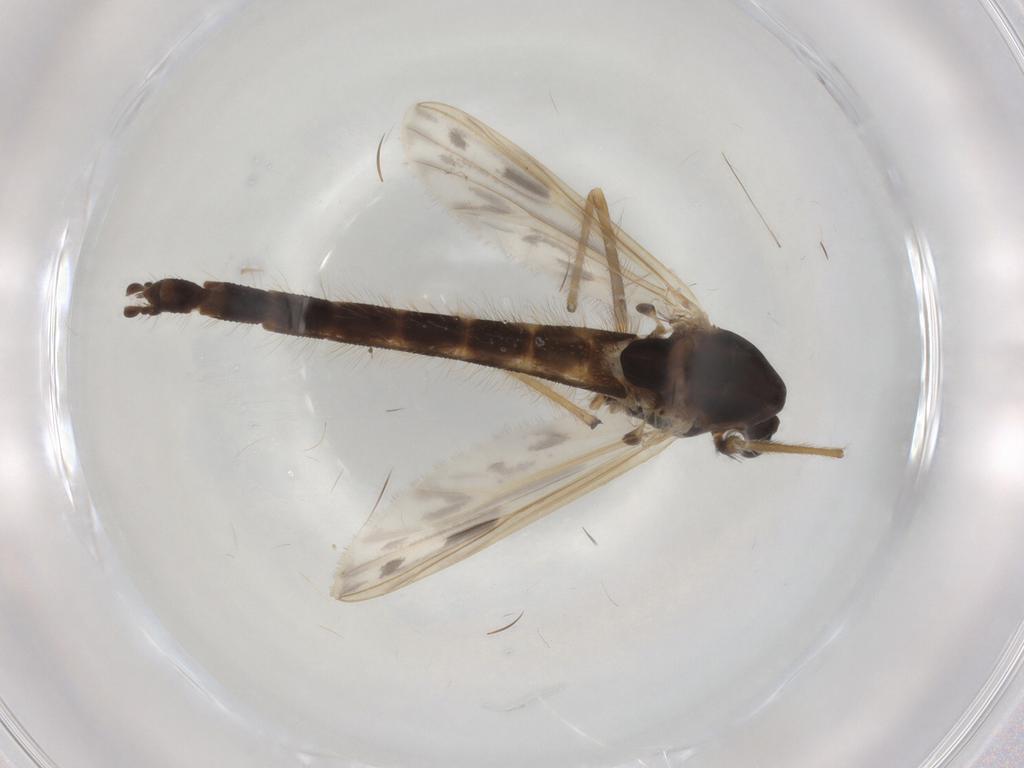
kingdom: Animalia
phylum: Arthropoda
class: Insecta
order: Diptera
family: Chironomidae
